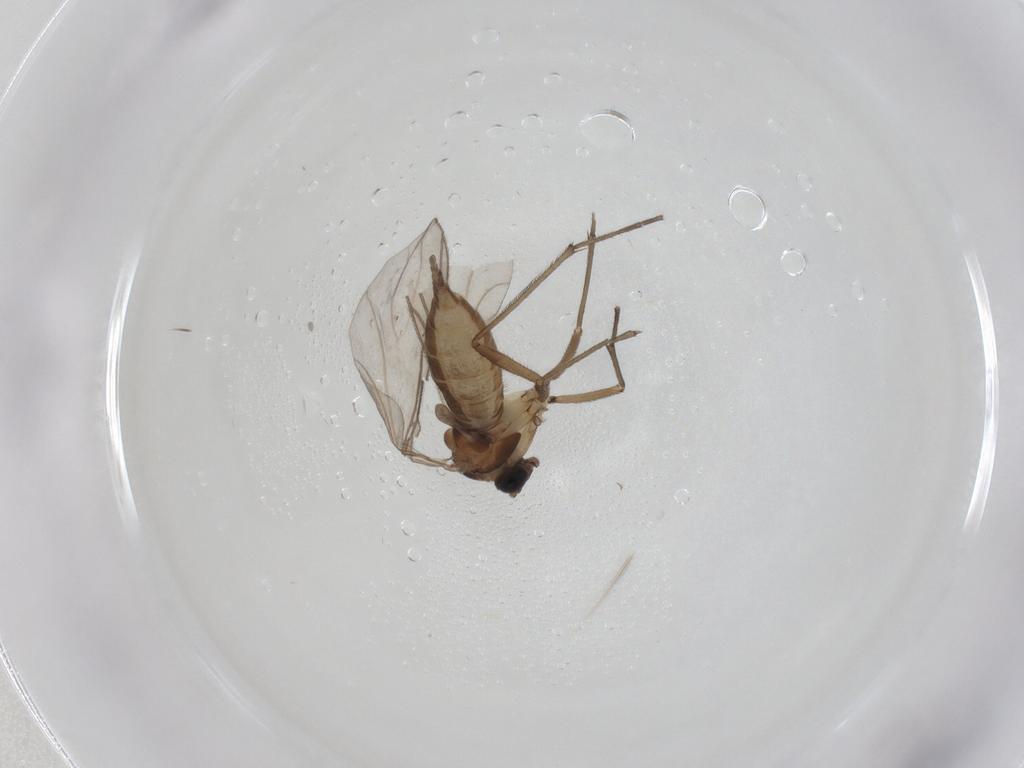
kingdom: Animalia
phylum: Arthropoda
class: Insecta
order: Diptera
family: Sciaridae
